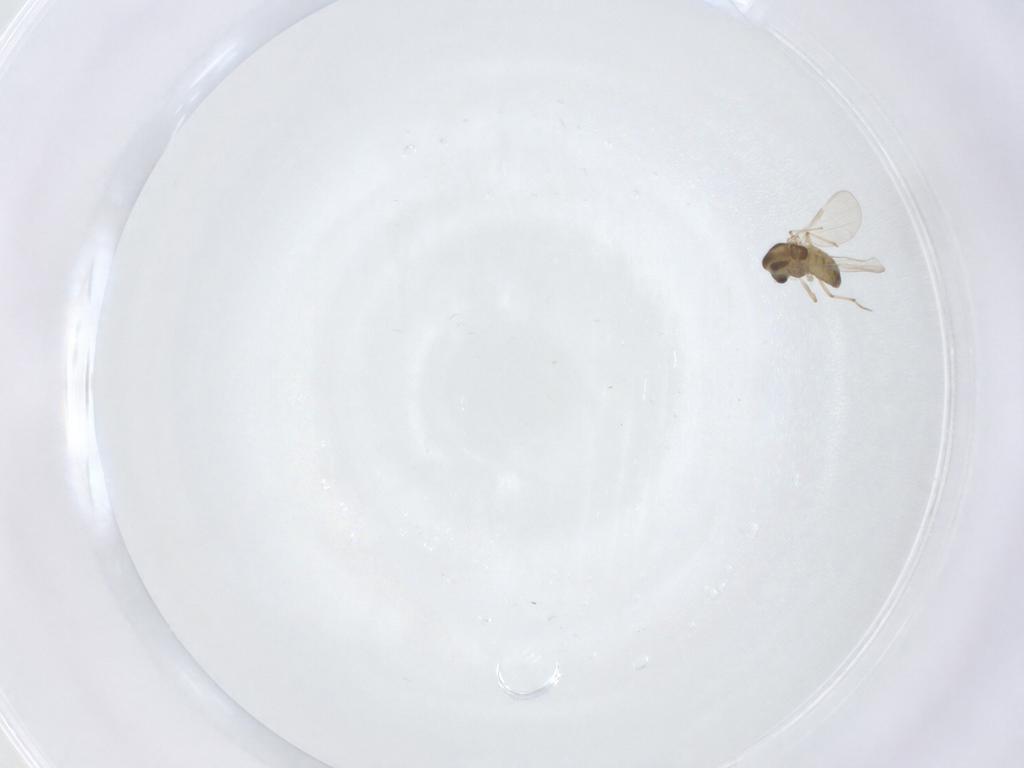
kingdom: Animalia
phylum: Arthropoda
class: Insecta
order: Diptera
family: Chironomidae
